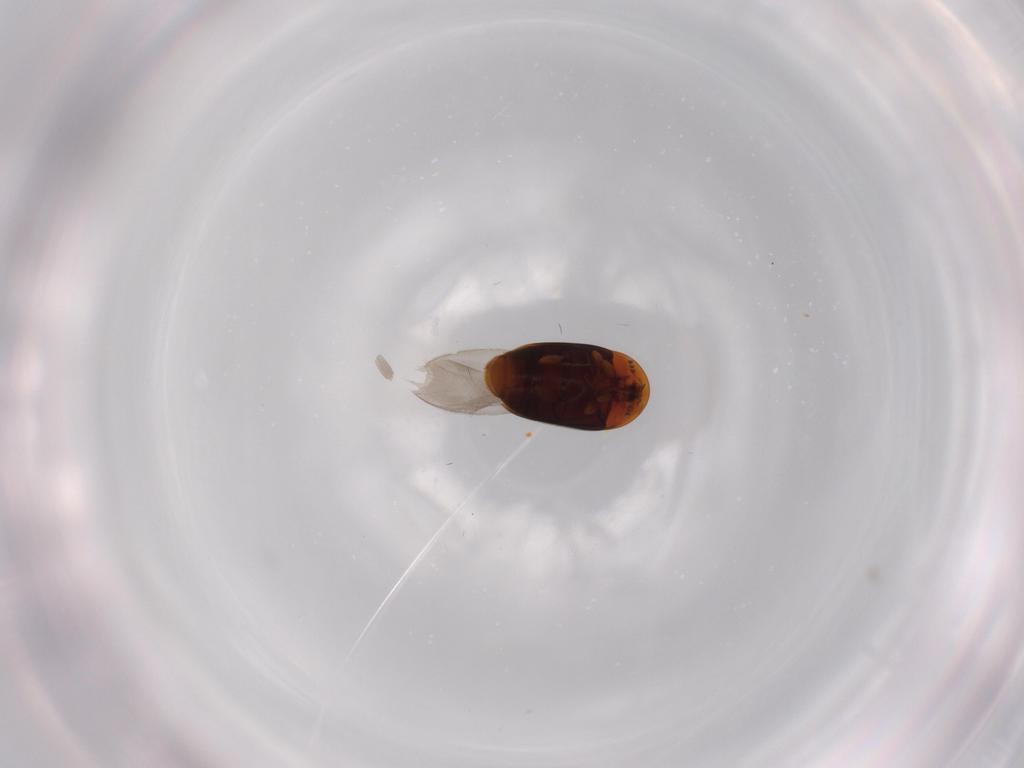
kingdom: Animalia
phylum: Arthropoda
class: Insecta
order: Coleoptera
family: Corylophidae
